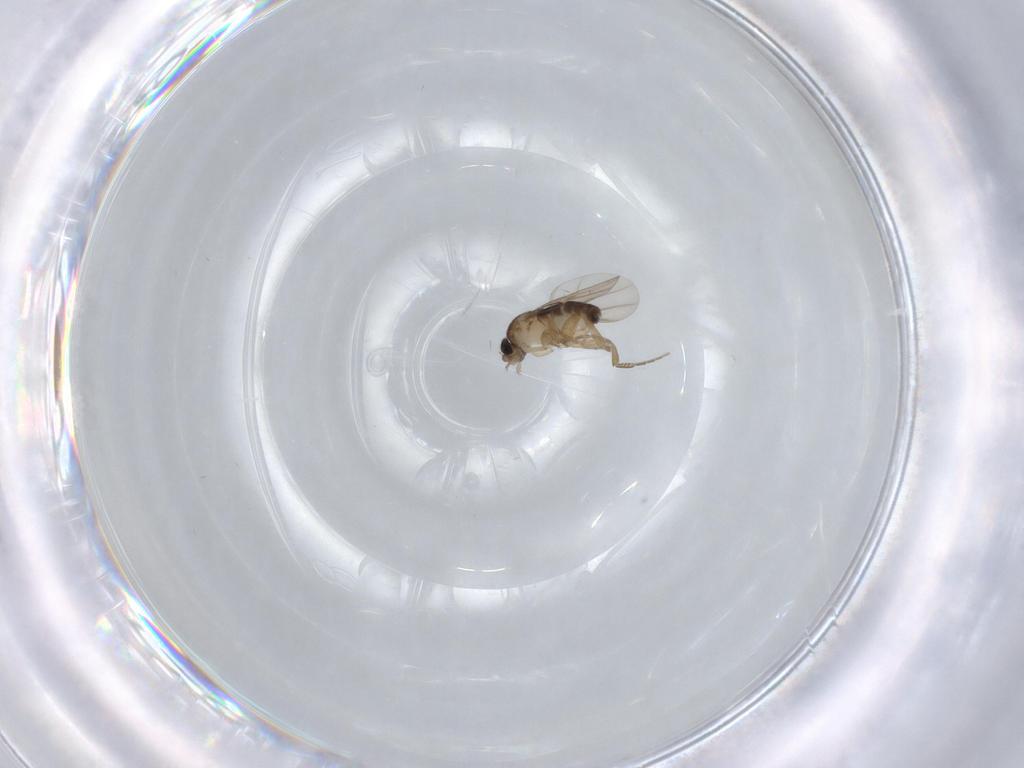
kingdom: Animalia
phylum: Arthropoda
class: Insecta
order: Diptera
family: Phoridae
